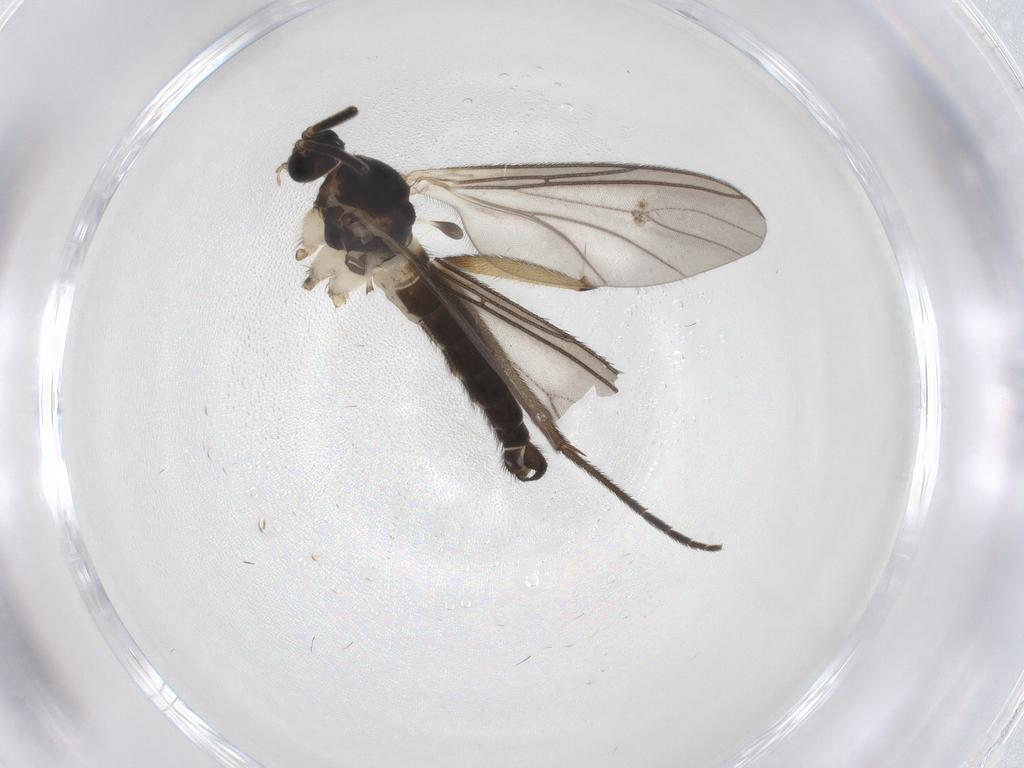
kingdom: Animalia
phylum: Arthropoda
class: Insecta
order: Diptera
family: Sciaridae
